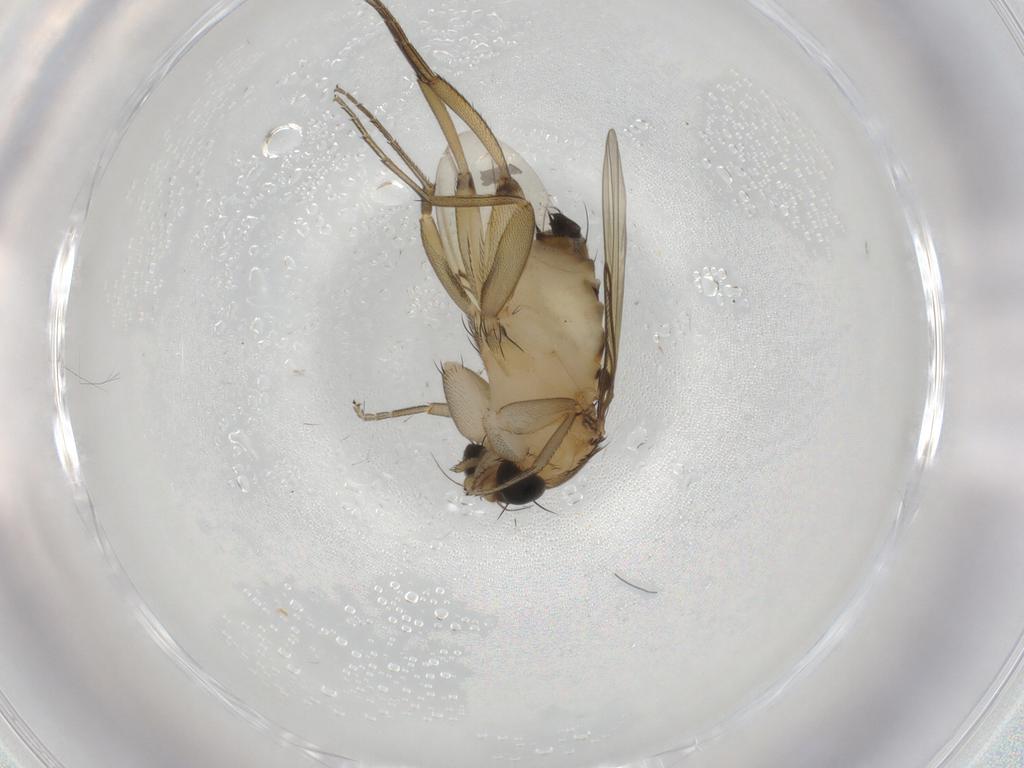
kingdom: Animalia
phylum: Arthropoda
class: Insecta
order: Diptera
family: Phoridae
